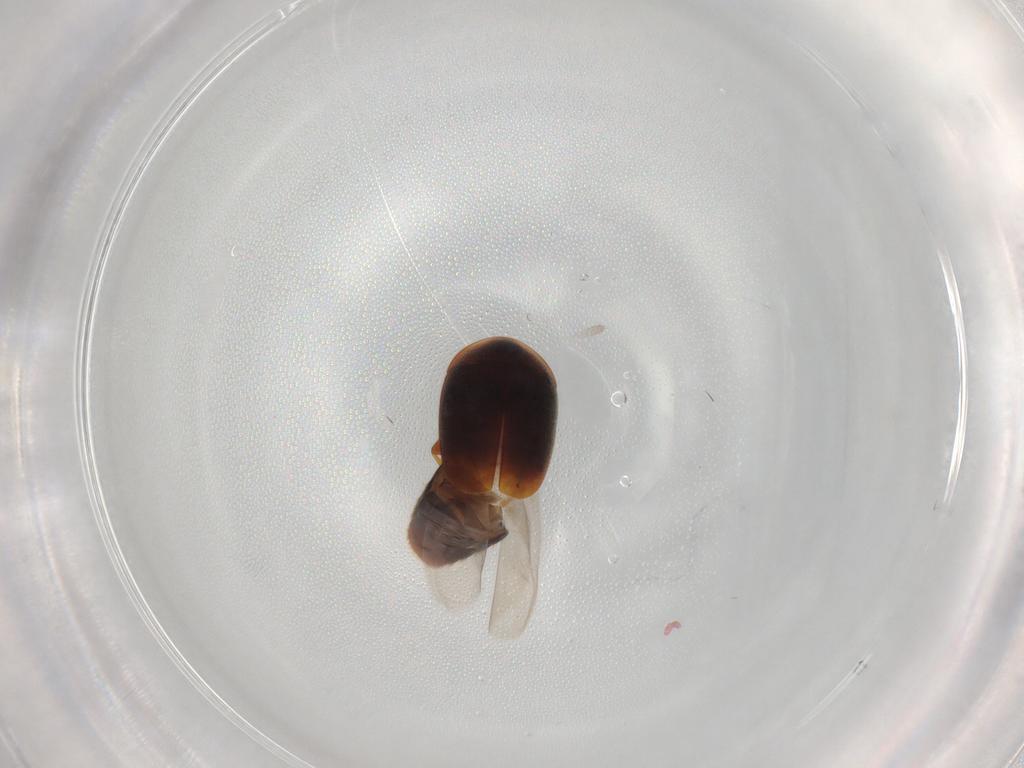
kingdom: Animalia
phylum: Arthropoda
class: Insecta
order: Coleoptera
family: Corylophidae
